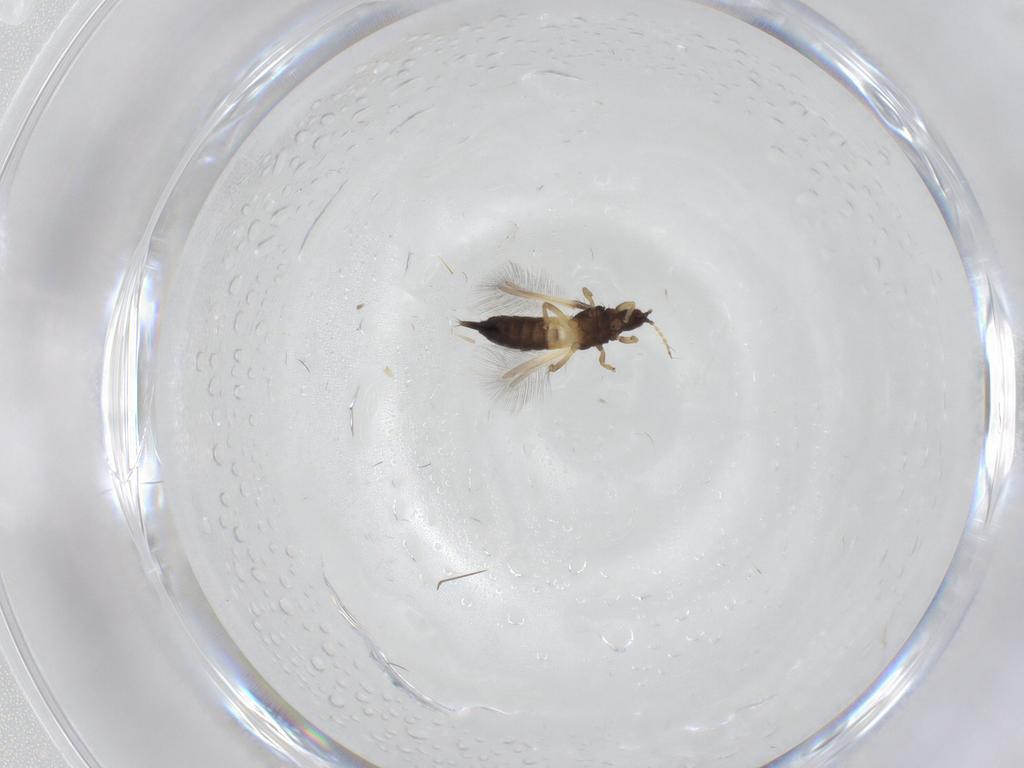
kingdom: Animalia
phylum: Arthropoda
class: Insecta
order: Thysanoptera
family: Phlaeothripidae
